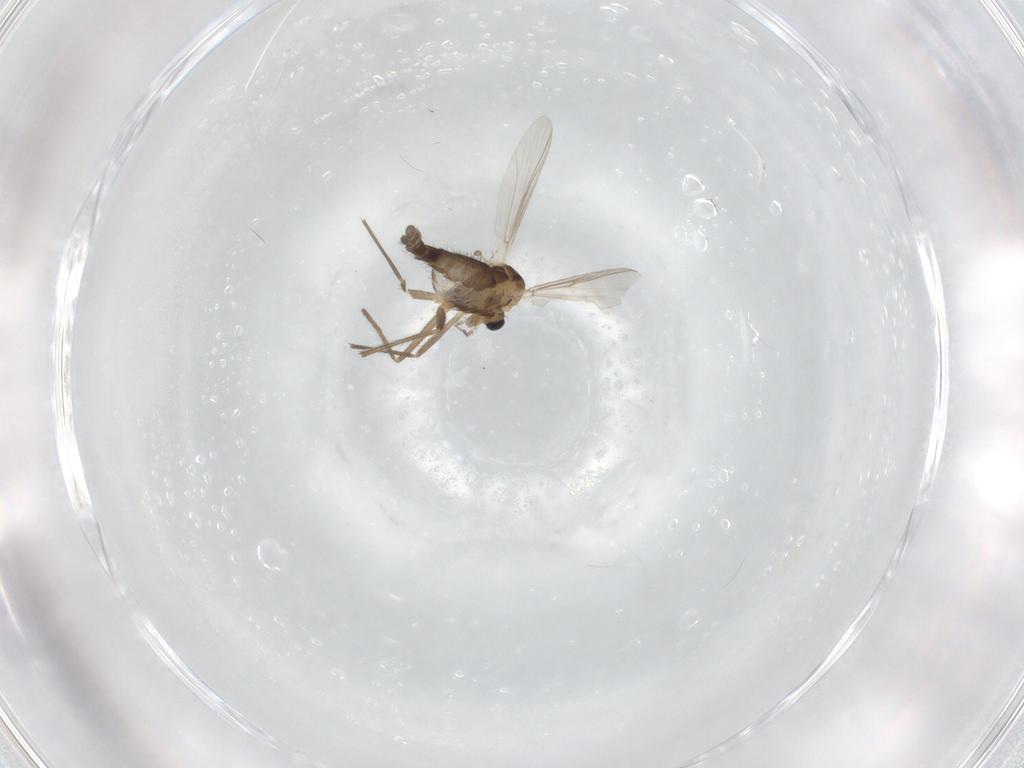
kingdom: Animalia
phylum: Arthropoda
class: Insecta
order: Diptera
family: Chironomidae
